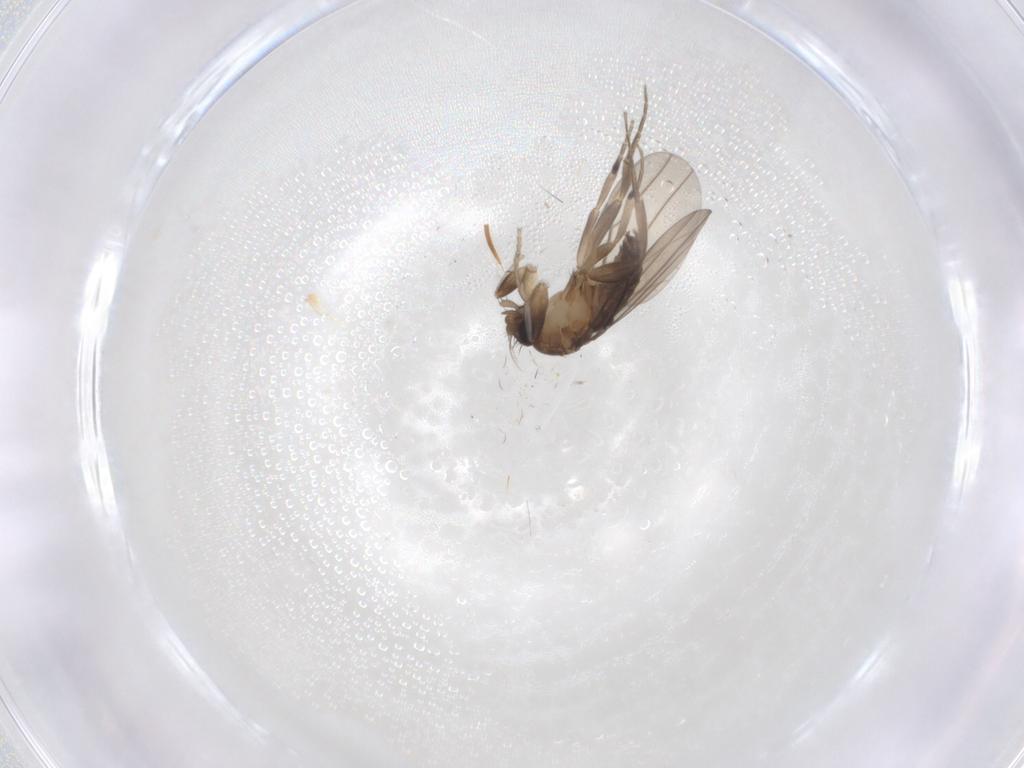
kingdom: Animalia
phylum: Arthropoda
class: Insecta
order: Diptera
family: Chironomidae
